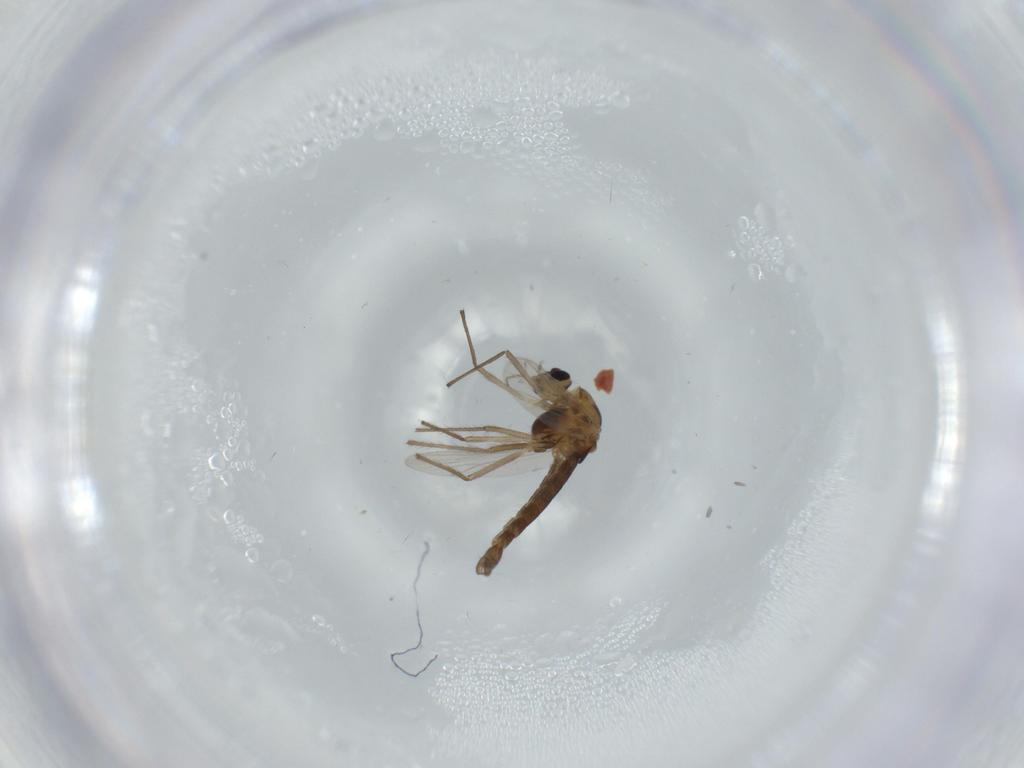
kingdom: Animalia
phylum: Arthropoda
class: Insecta
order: Diptera
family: Chironomidae
